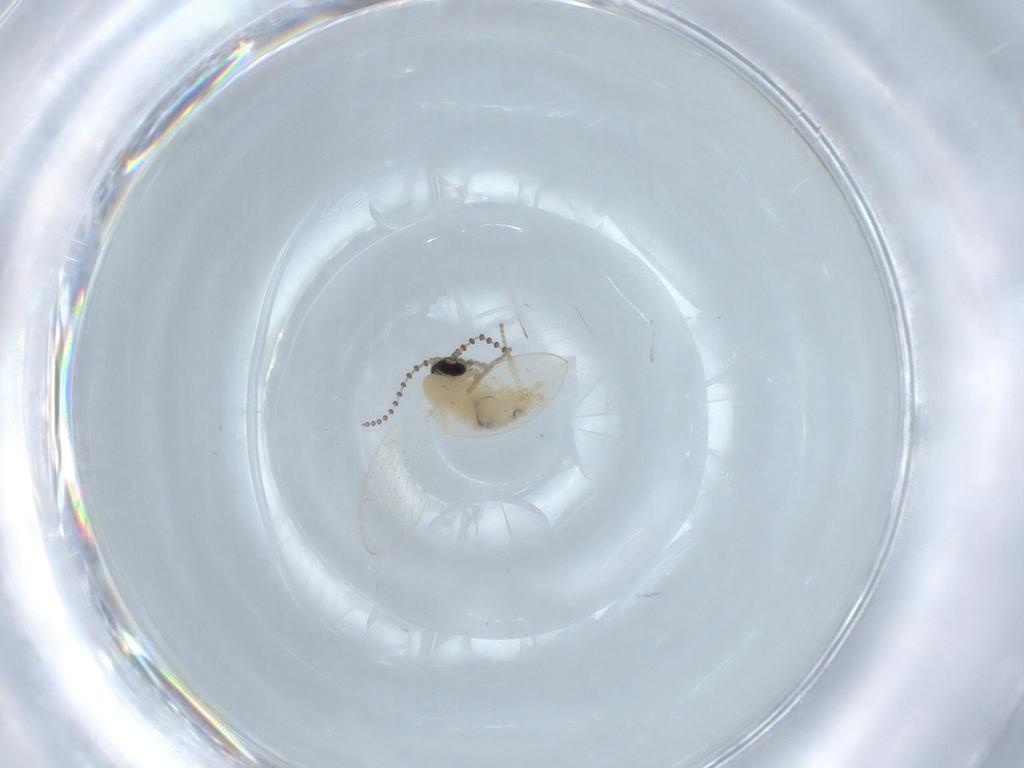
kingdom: Animalia
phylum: Arthropoda
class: Insecta
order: Diptera
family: Psychodidae
